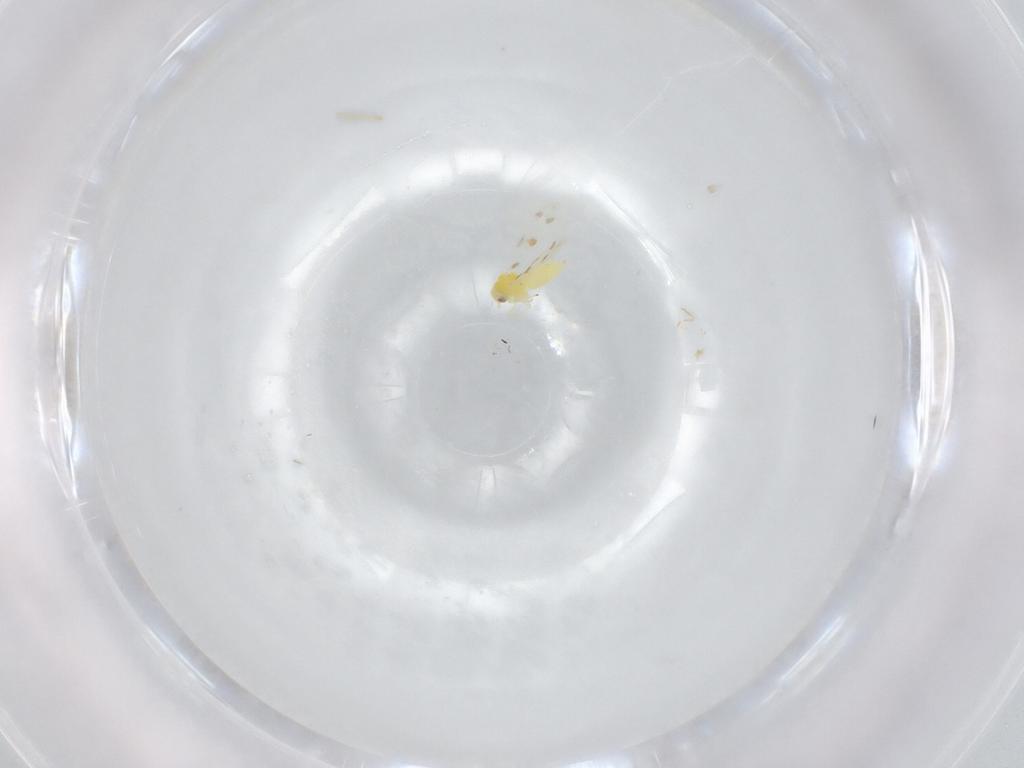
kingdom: Animalia
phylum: Arthropoda
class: Insecta
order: Hemiptera
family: Aleyrodidae
